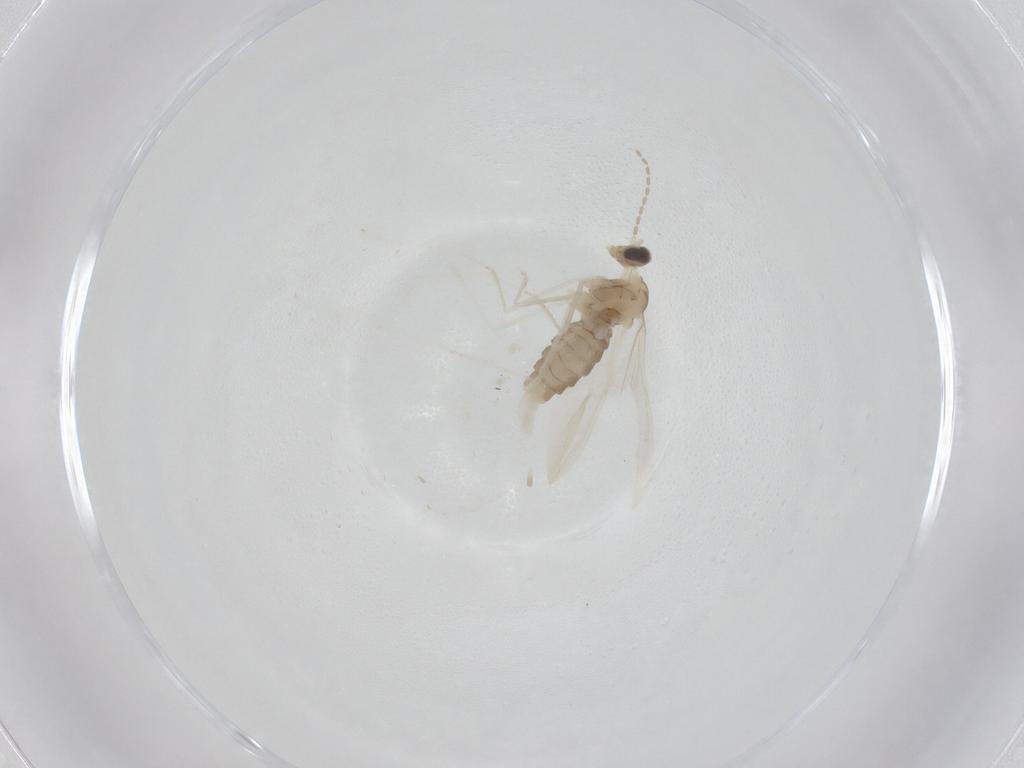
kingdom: Animalia
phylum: Arthropoda
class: Insecta
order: Diptera
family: Cecidomyiidae
